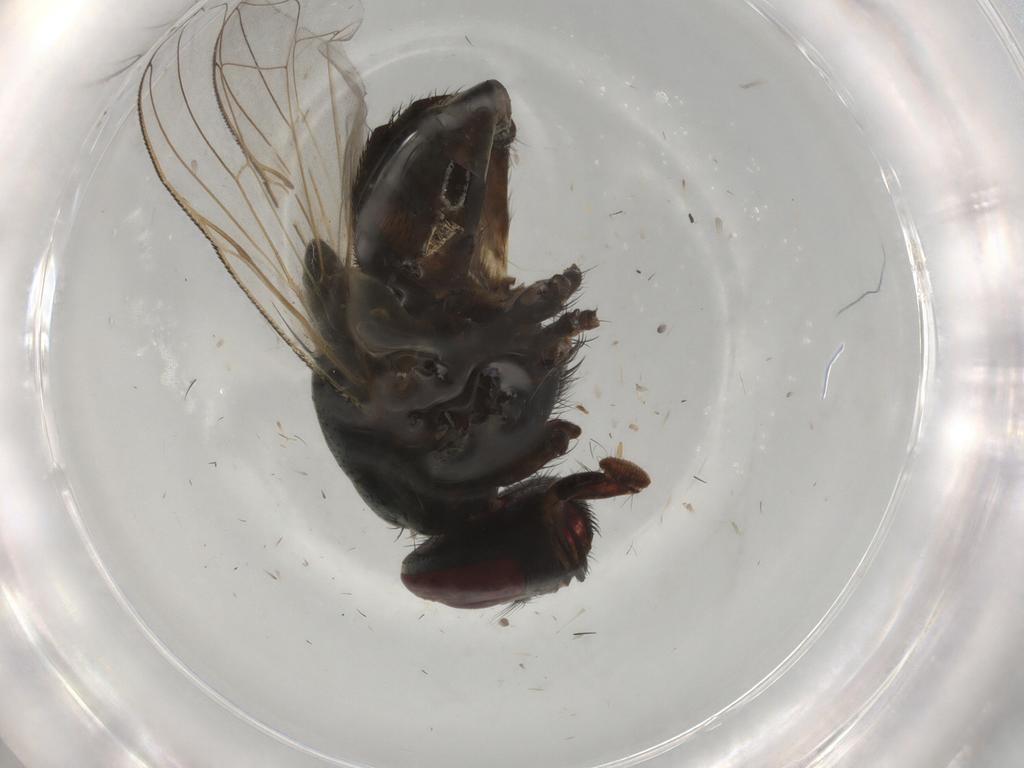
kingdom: Animalia
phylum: Arthropoda
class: Insecta
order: Diptera
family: Muscidae
